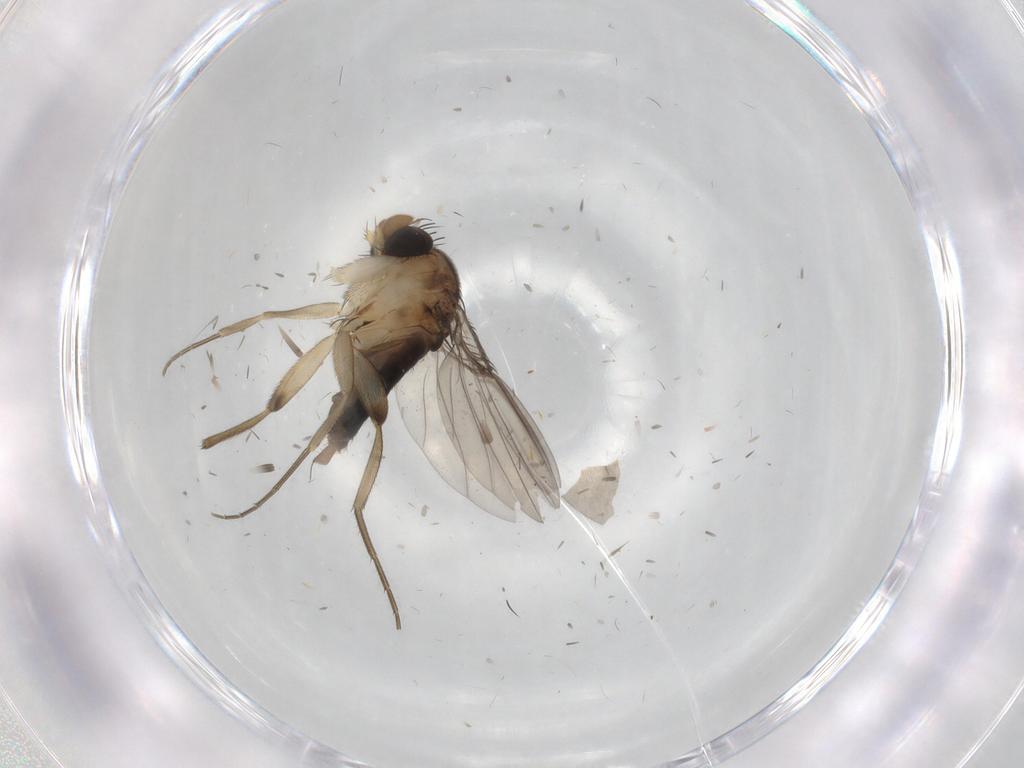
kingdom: Animalia
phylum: Arthropoda
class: Insecta
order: Diptera
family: Phoridae
